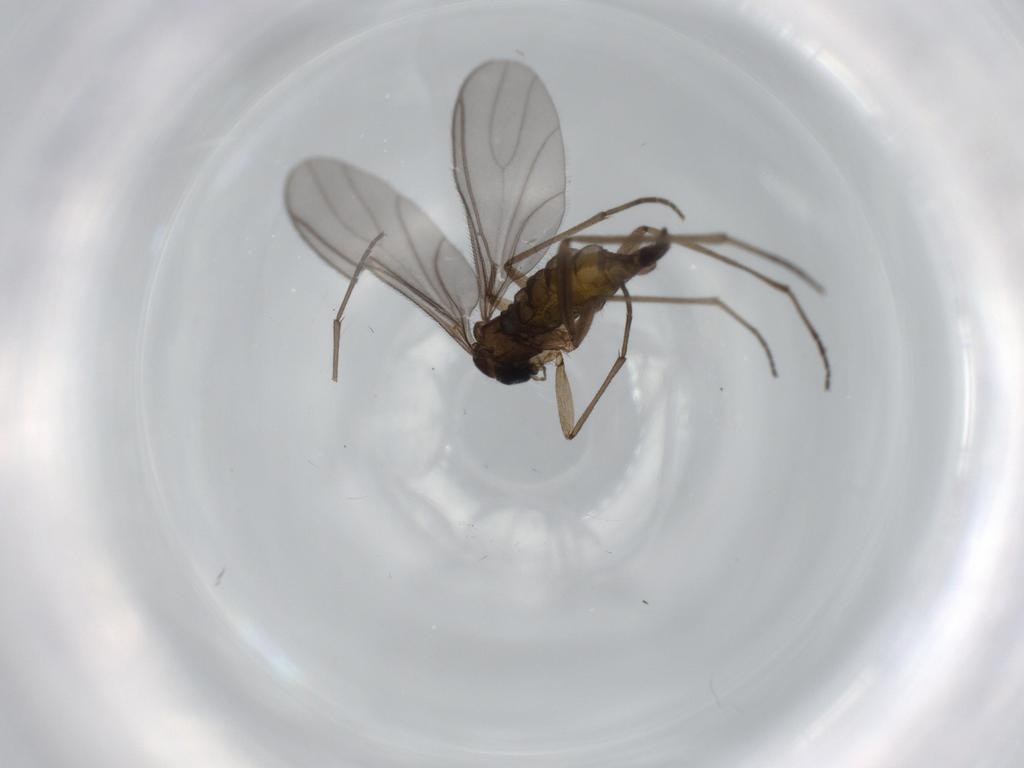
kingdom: Animalia
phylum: Arthropoda
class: Insecta
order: Diptera
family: Sciaridae
